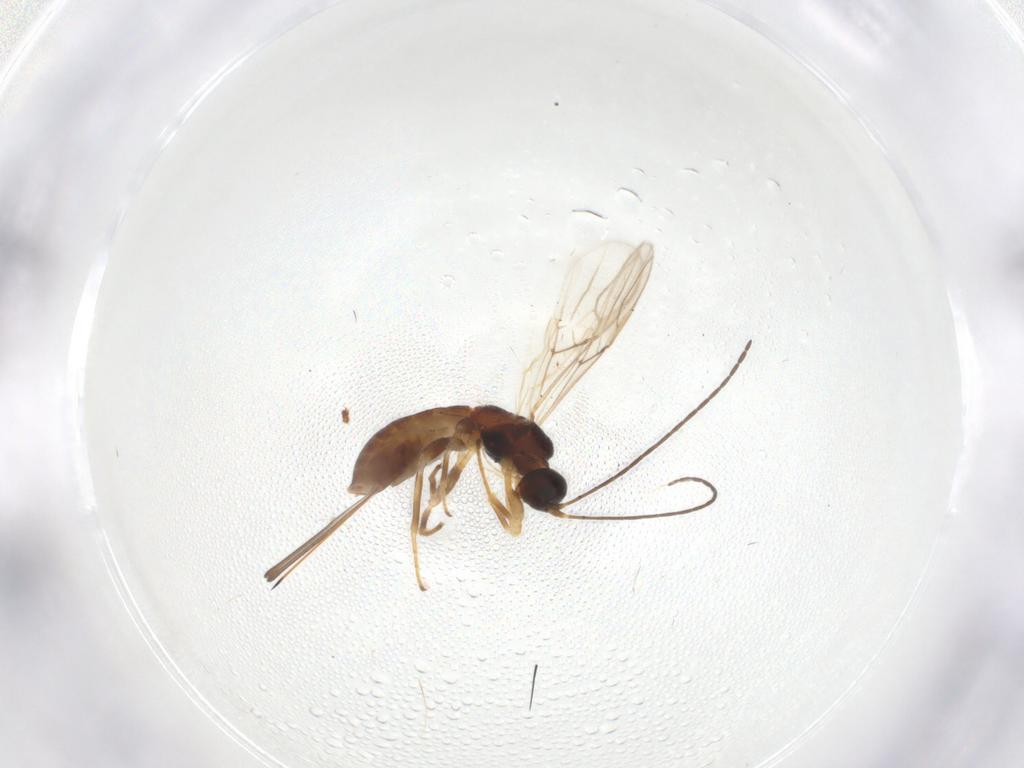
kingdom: Animalia
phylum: Arthropoda
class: Insecta
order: Hymenoptera
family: Braconidae
